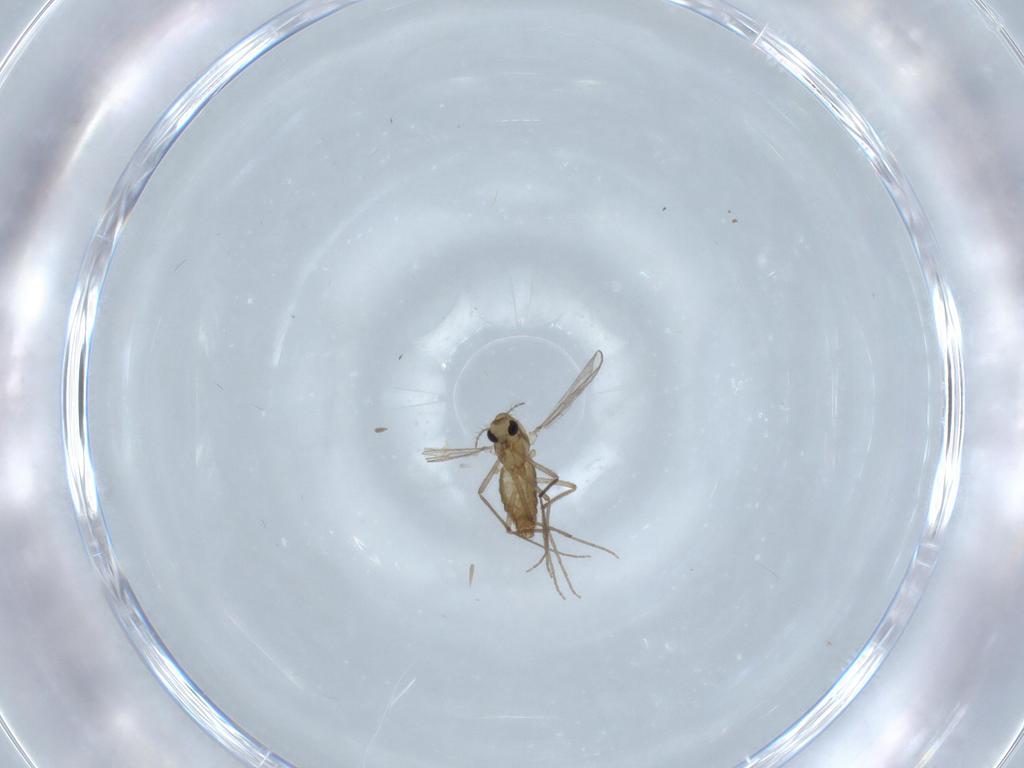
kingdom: Animalia
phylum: Arthropoda
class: Insecta
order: Diptera
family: Chironomidae
